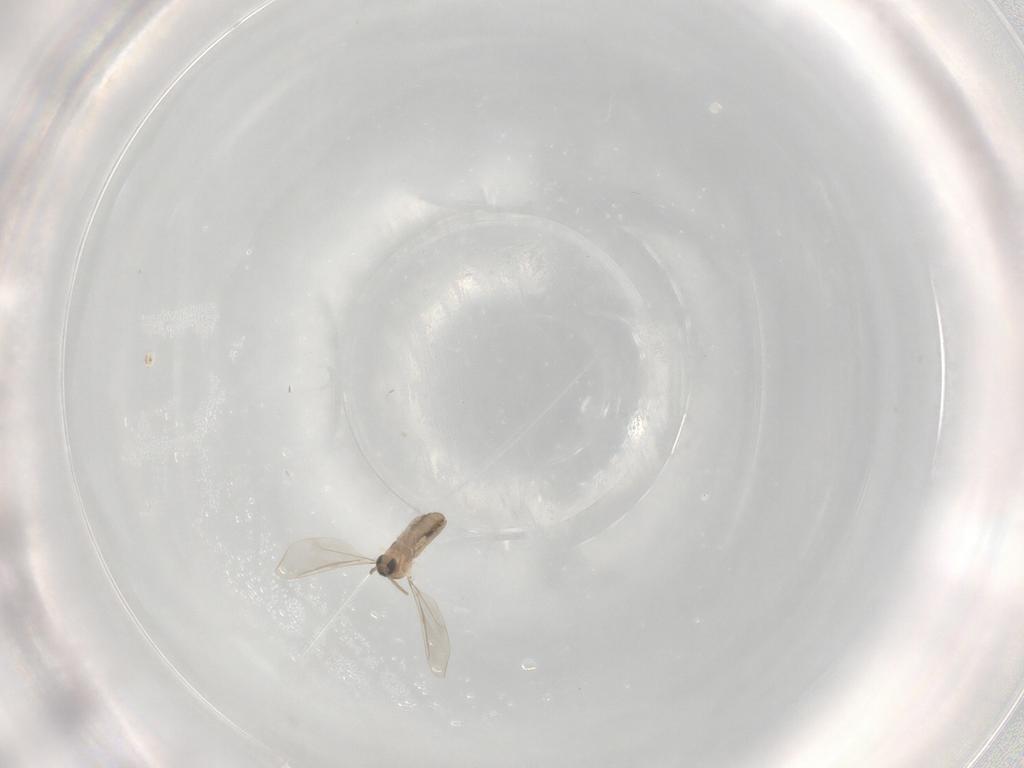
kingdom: Animalia
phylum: Arthropoda
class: Insecta
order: Diptera
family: Cecidomyiidae
